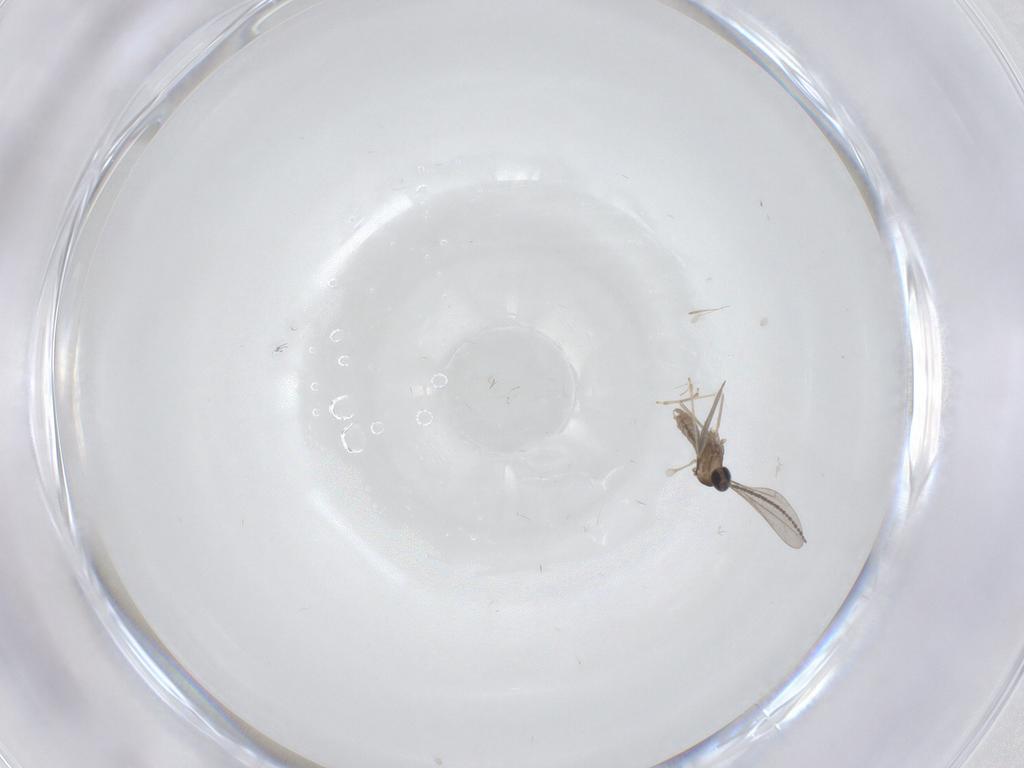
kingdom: Animalia
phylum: Arthropoda
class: Insecta
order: Diptera
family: Cecidomyiidae
